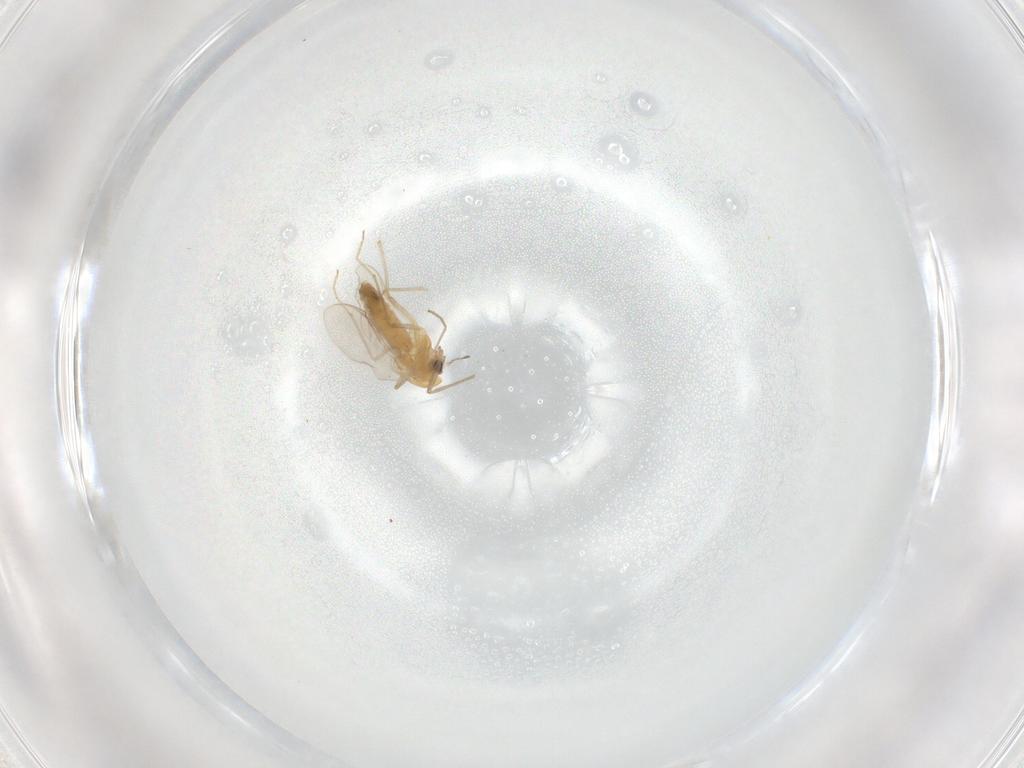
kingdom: Animalia
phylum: Arthropoda
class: Insecta
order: Diptera
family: Chironomidae
